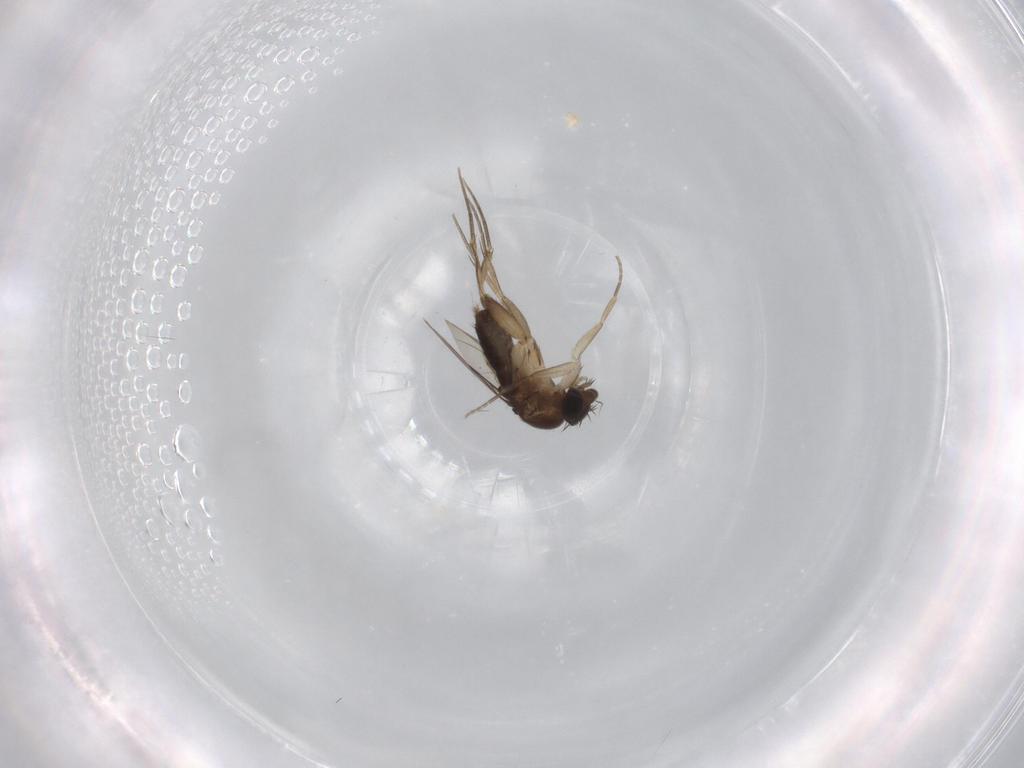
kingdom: Animalia
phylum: Arthropoda
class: Insecta
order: Diptera
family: Phoridae
